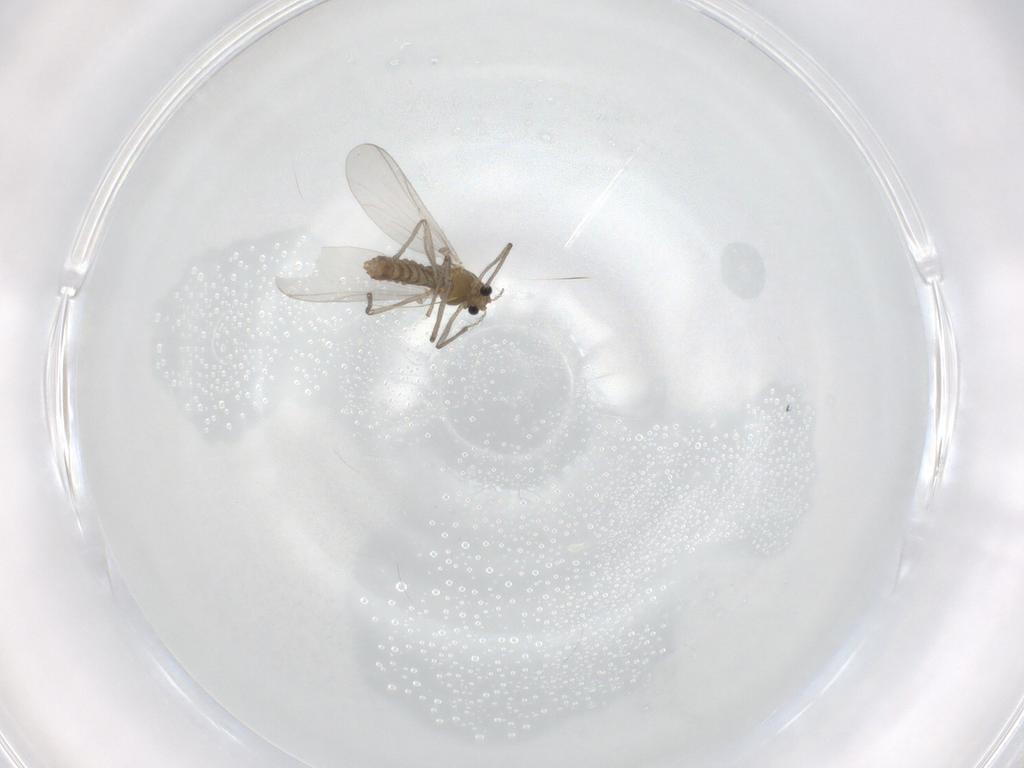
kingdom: Animalia
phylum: Arthropoda
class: Insecta
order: Diptera
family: Chironomidae
